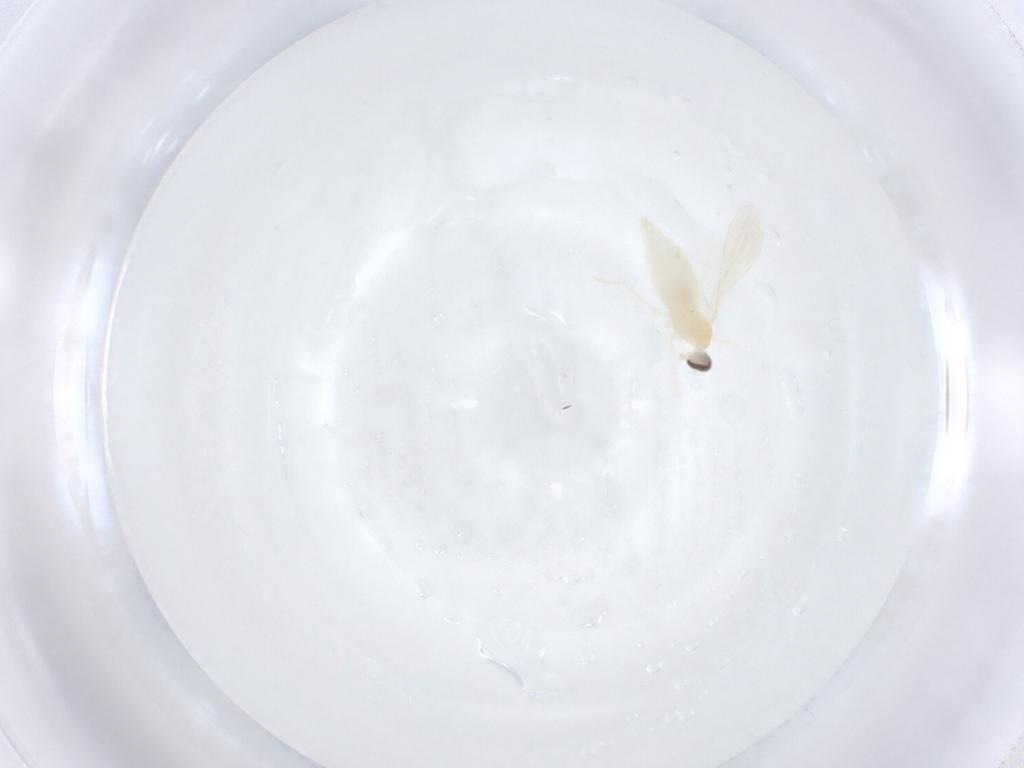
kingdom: Animalia
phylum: Arthropoda
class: Insecta
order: Diptera
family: Cecidomyiidae
